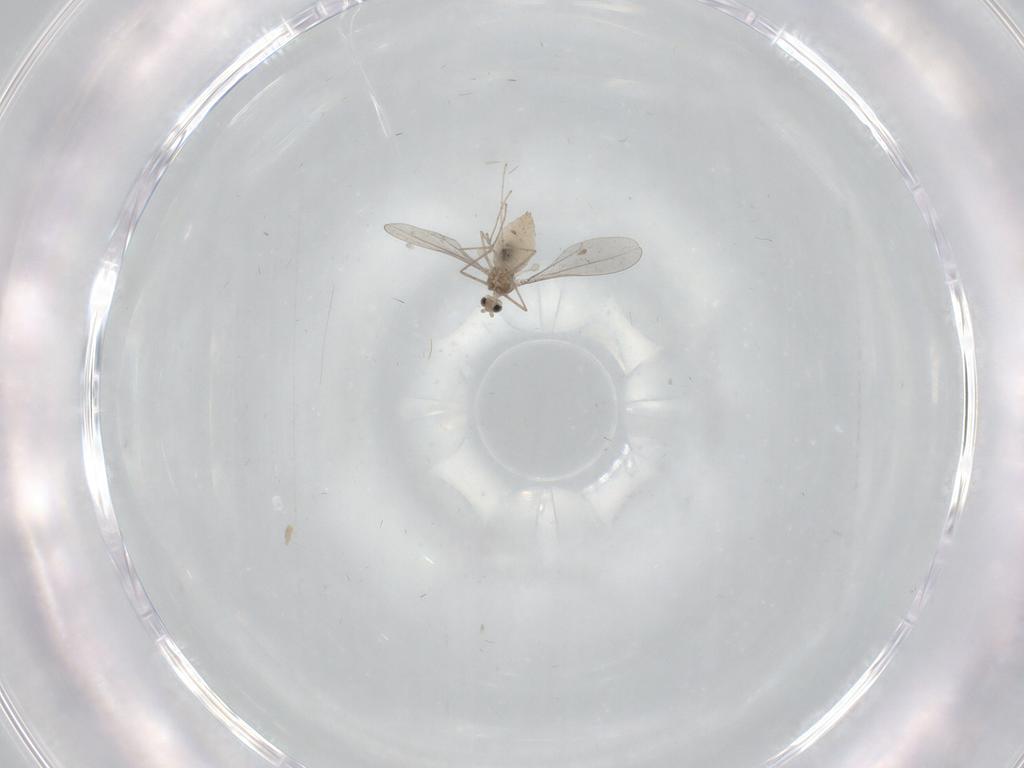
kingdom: Animalia
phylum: Arthropoda
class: Insecta
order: Diptera
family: Cecidomyiidae
